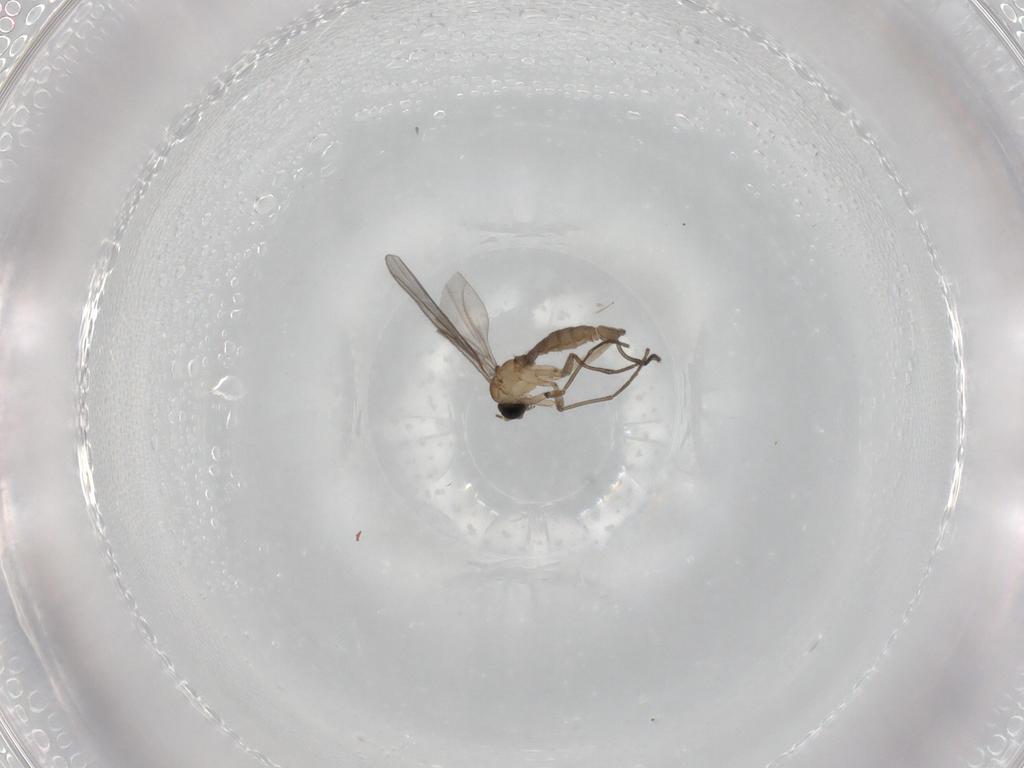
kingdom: Animalia
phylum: Arthropoda
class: Insecta
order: Diptera
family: Sciaridae
